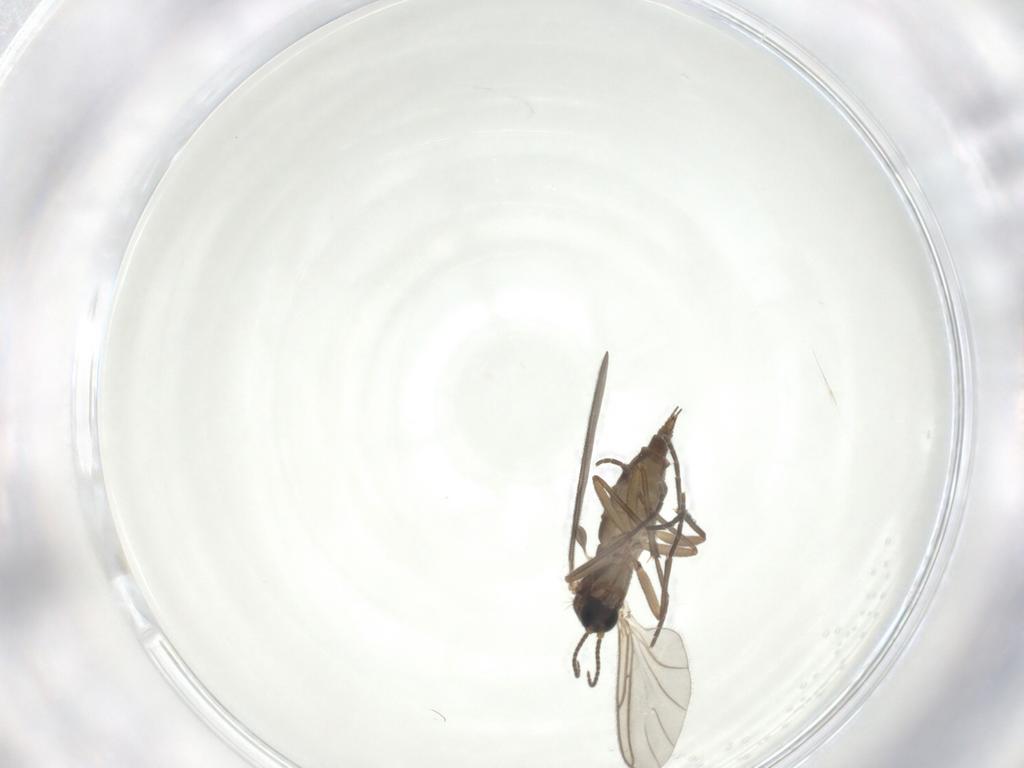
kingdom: Animalia
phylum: Arthropoda
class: Insecta
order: Diptera
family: Sciaridae
